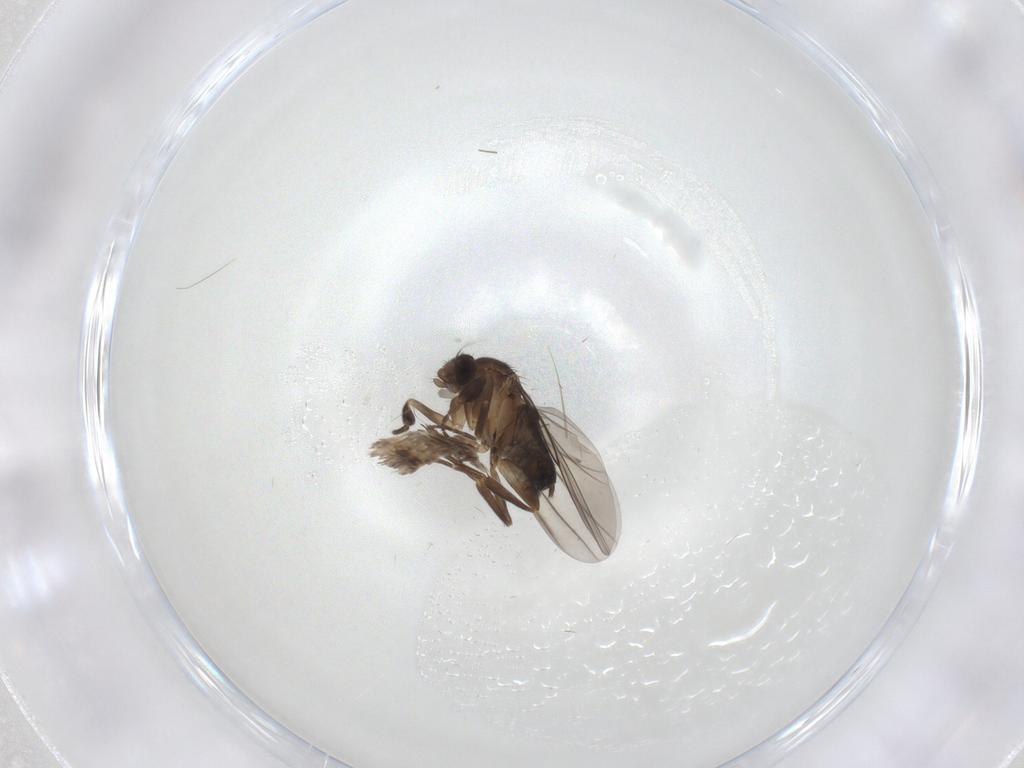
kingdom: Animalia
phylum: Arthropoda
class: Insecta
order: Lepidoptera
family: Erebidae
